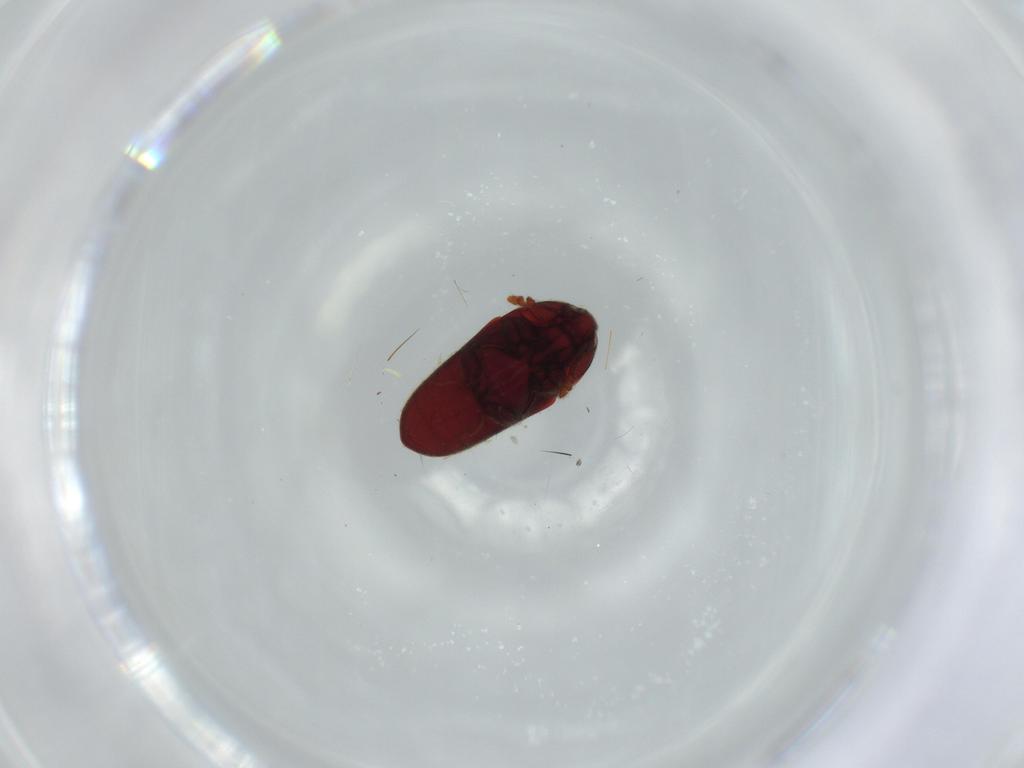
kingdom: Animalia
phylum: Arthropoda
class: Insecta
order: Coleoptera
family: Throscidae
